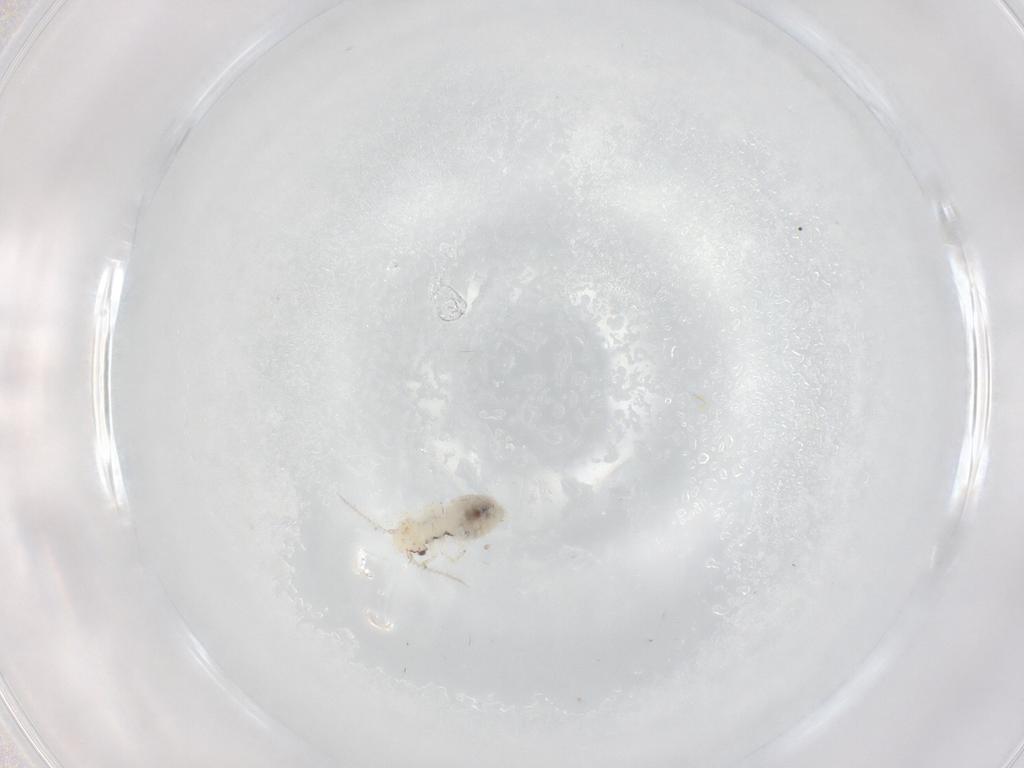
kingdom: Animalia
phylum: Arthropoda
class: Insecta
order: Psocodea
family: Caeciliusidae
